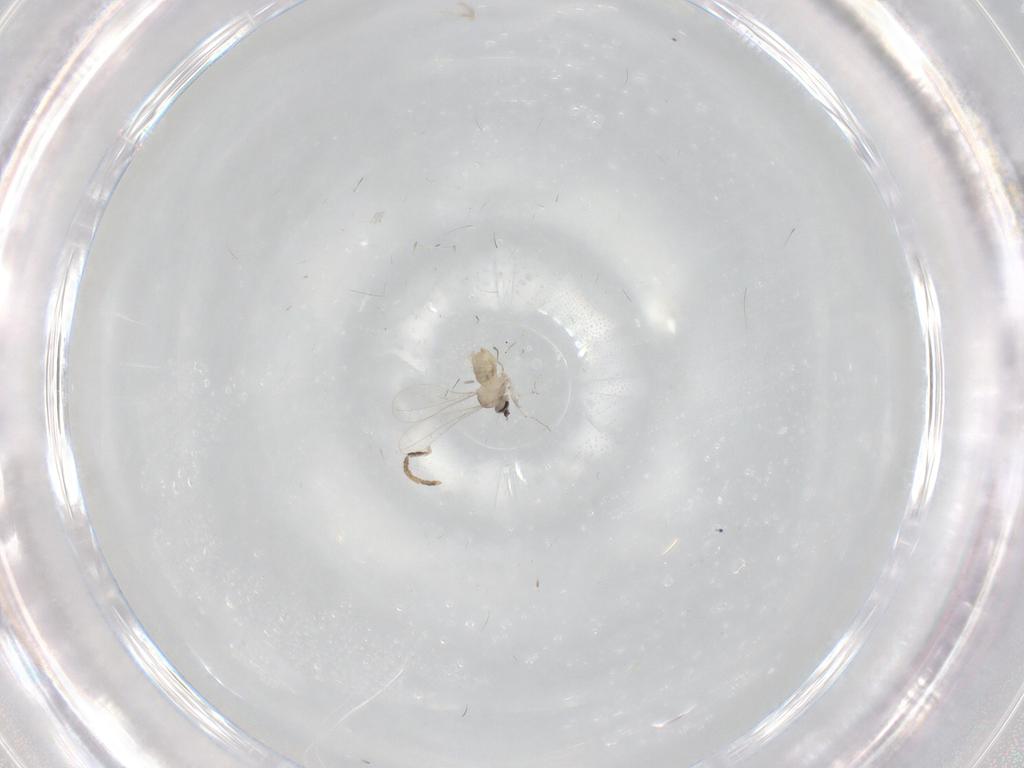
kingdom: Animalia
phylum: Arthropoda
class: Insecta
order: Diptera
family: Cecidomyiidae
